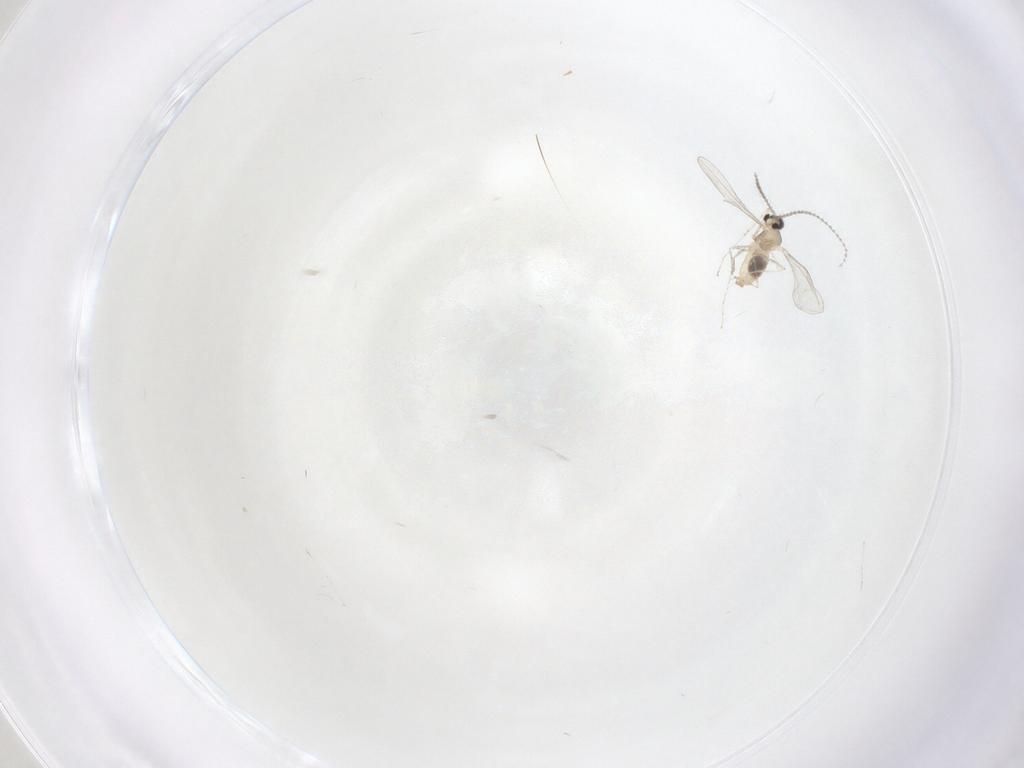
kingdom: Animalia
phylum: Arthropoda
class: Insecta
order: Diptera
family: Cecidomyiidae
